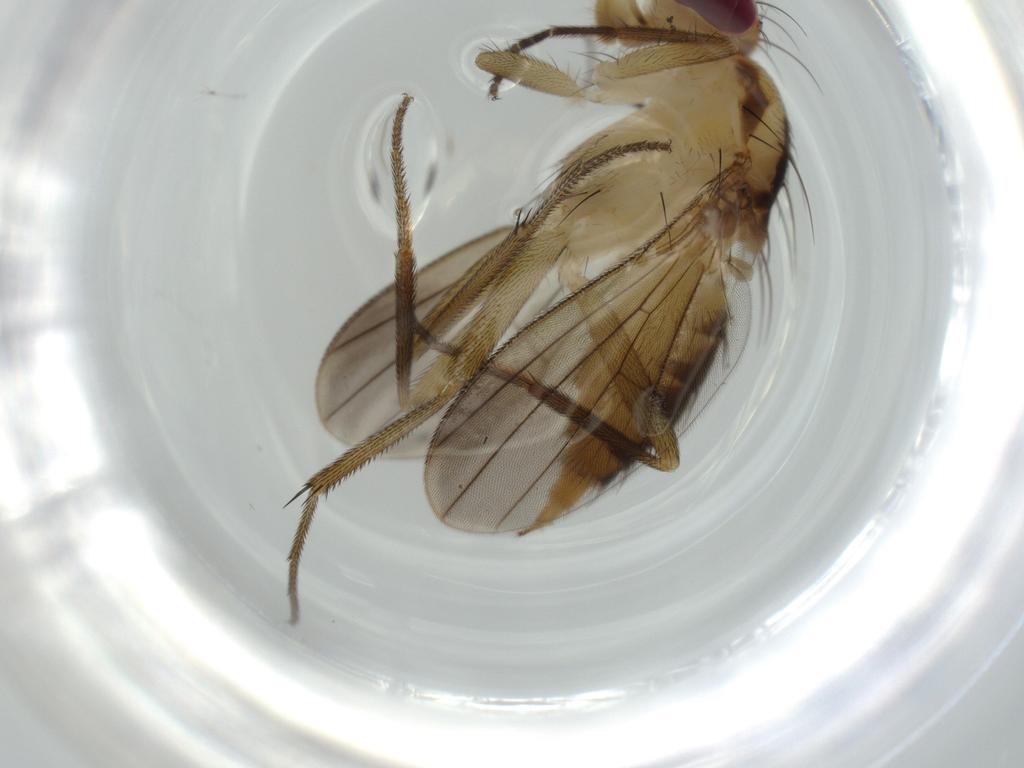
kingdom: Animalia
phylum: Arthropoda
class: Insecta
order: Diptera
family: Clusiidae
